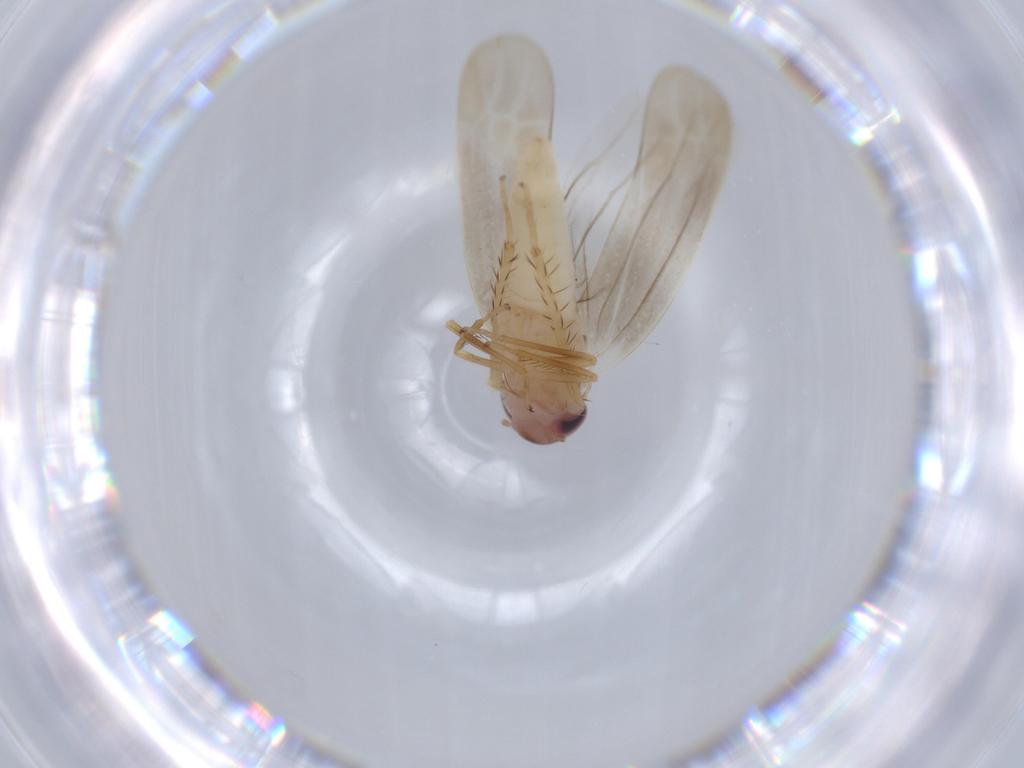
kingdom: Animalia
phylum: Arthropoda
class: Insecta
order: Hemiptera
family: Cicadellidae
